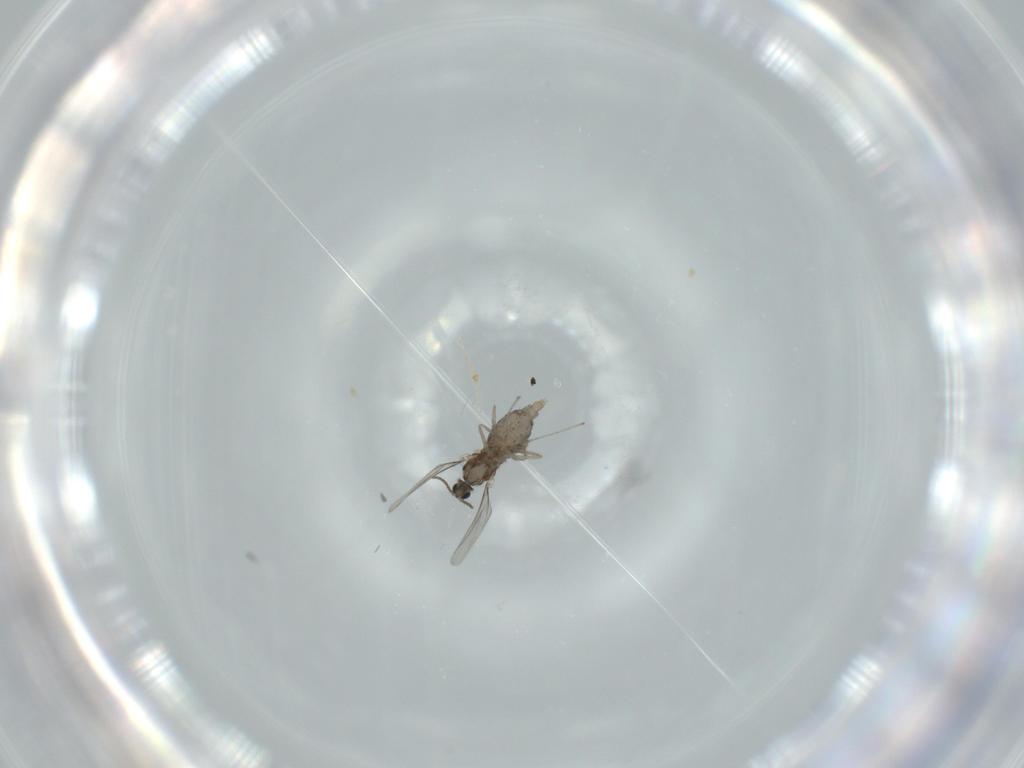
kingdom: Animalia
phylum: Arthropoda
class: Insecta
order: Diptera
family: Cecidomyiidae
